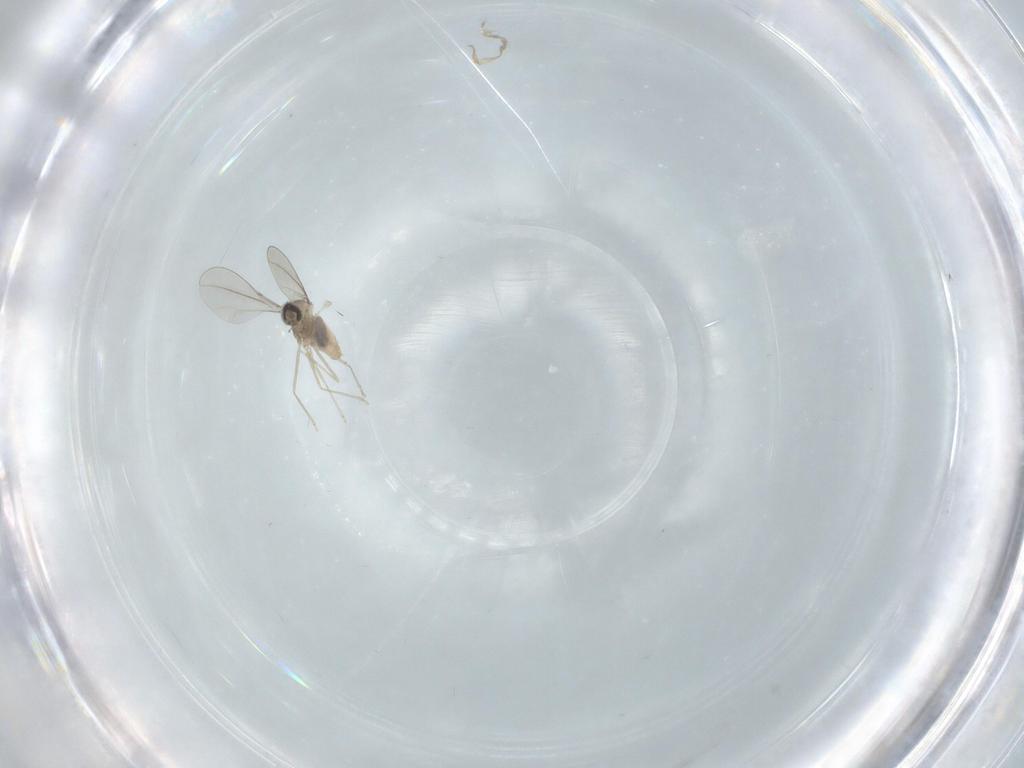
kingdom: Animalia
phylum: Arthropoda
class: Insecta
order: Diptera
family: Cecidomyiidae
